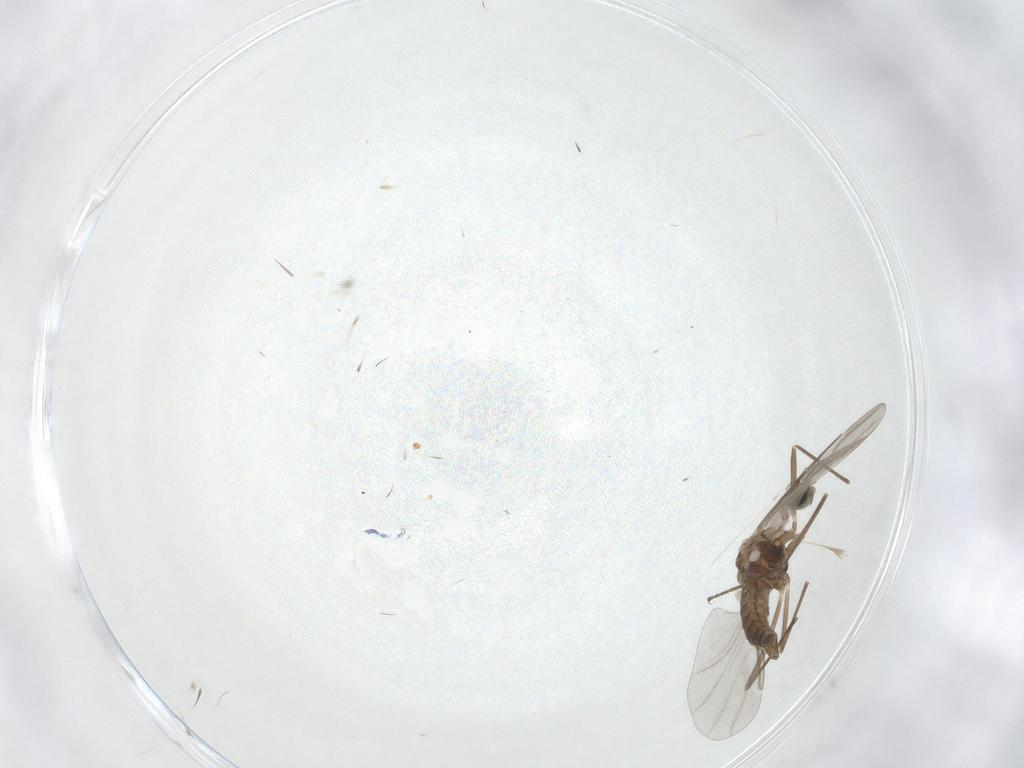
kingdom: Animalia
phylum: Arthropoda
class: Insecta
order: Diptera
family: Cecidomyiidae
